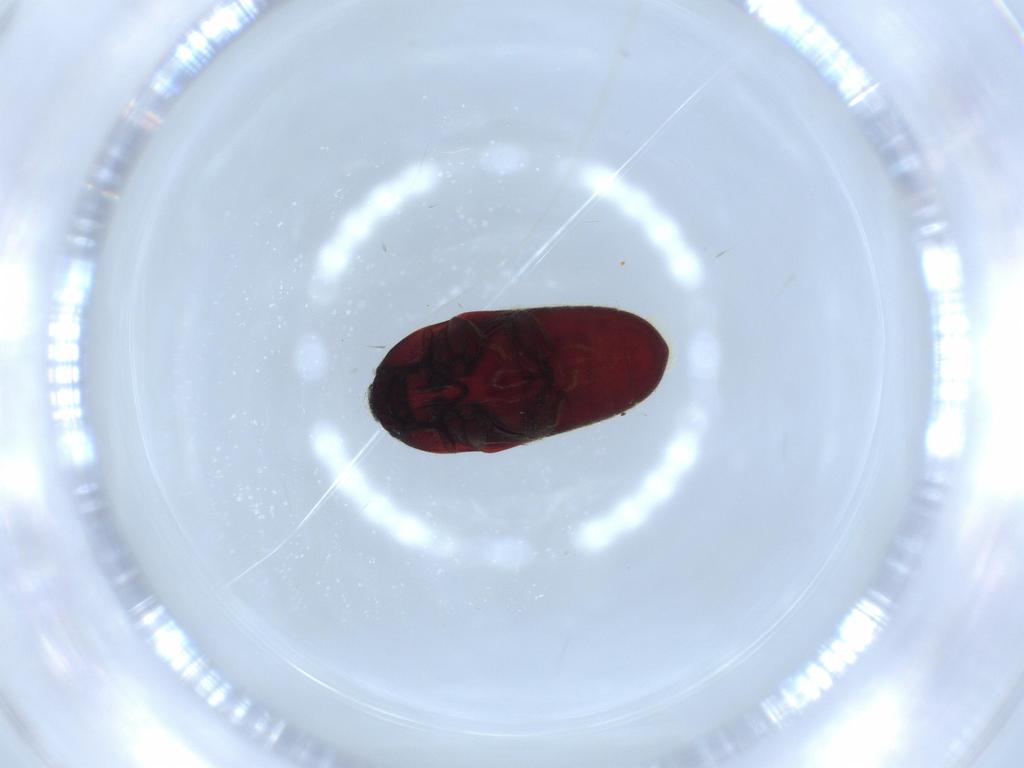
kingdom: Animalia
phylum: Arthropoda
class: Insecta
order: Coleoptera
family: Throscidae
